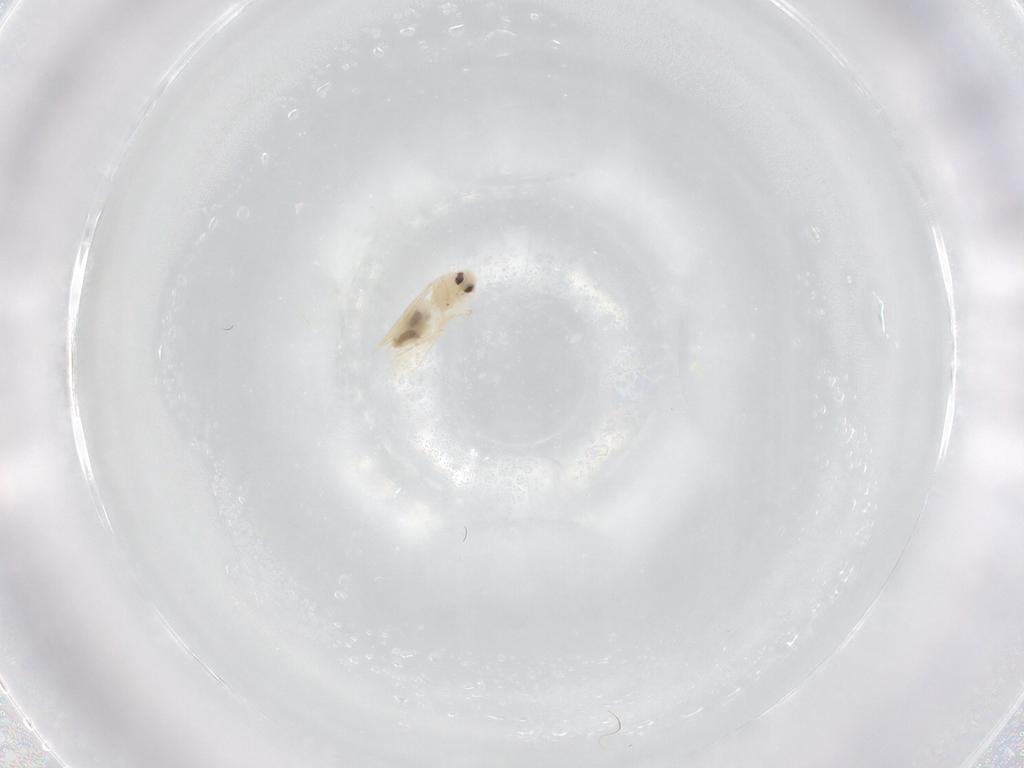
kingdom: Animalia
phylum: Arthropoda
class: Insecta
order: Hemiptera
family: Aleyrodidae
